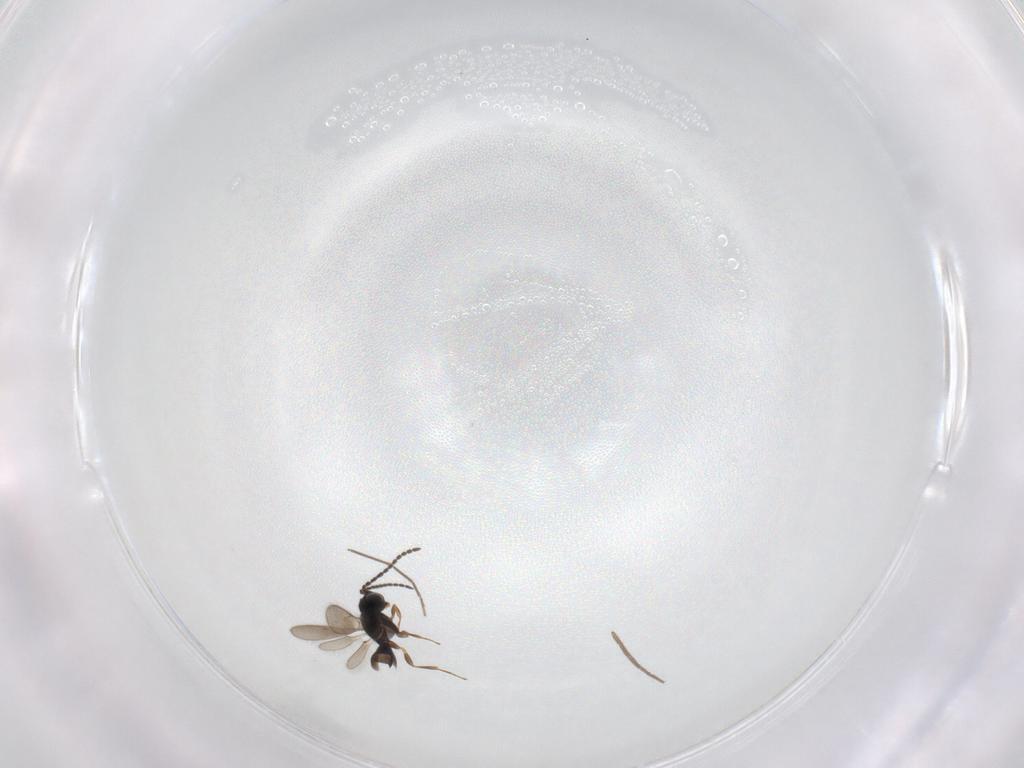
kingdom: Animalia
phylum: Arthropoda
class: Insecta
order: Hymenoptera
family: Scelionidae
